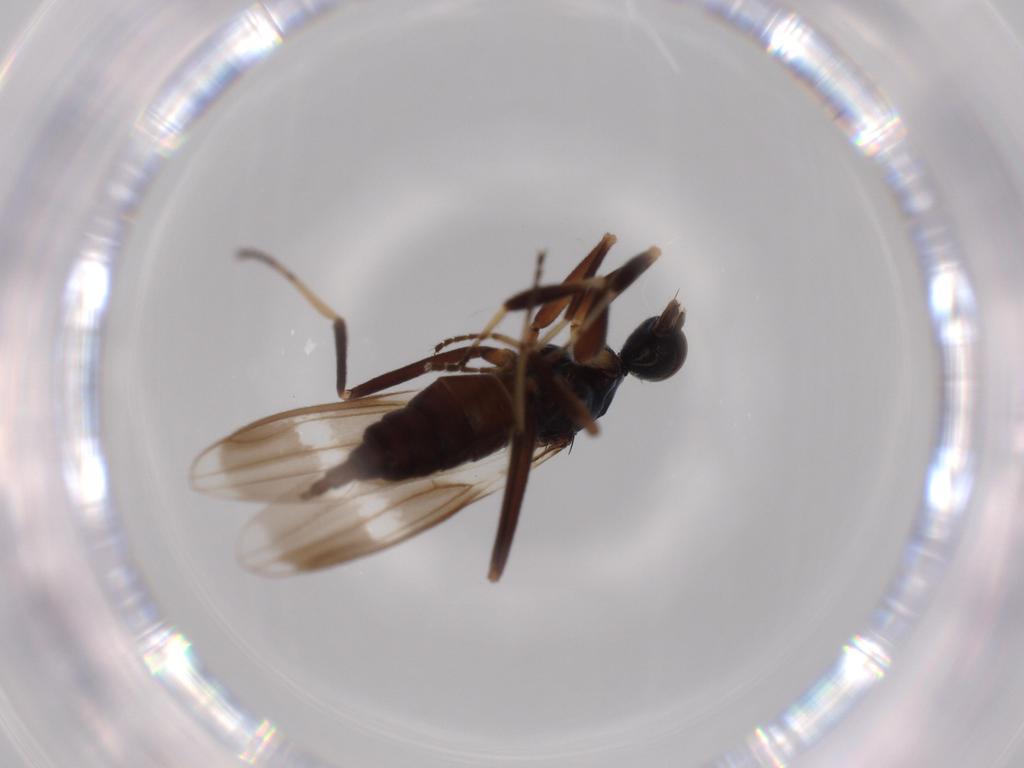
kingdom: Animalia
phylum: Arthropoda
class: Insecta
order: Diptera
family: Hybotidae
